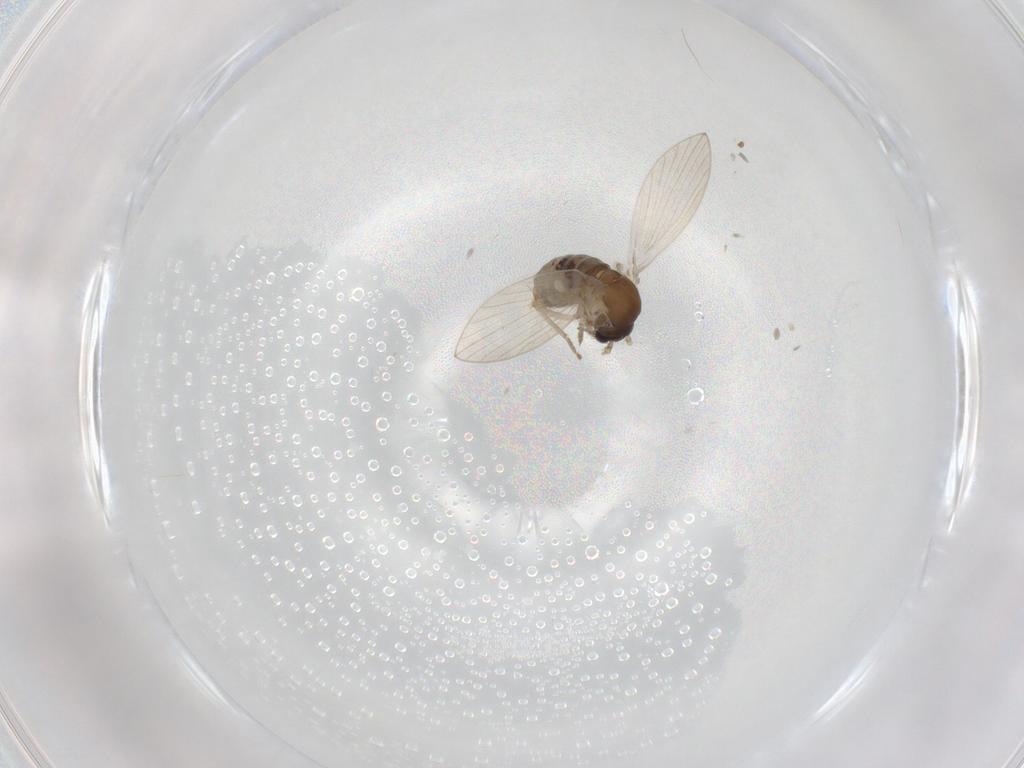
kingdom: Animalia
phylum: Arthropoda
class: Insecta
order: Diptera
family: Psychodidae
